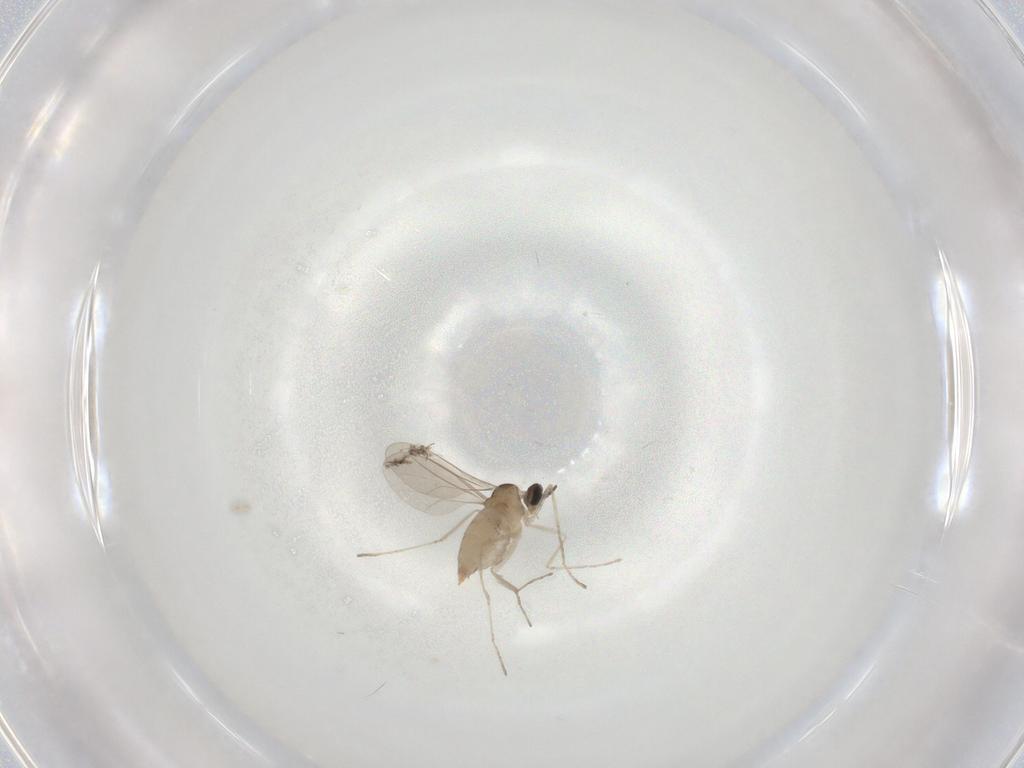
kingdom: Animalia
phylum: Arthropoda
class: Insecta
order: Diptera
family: Cecidomyiidae
